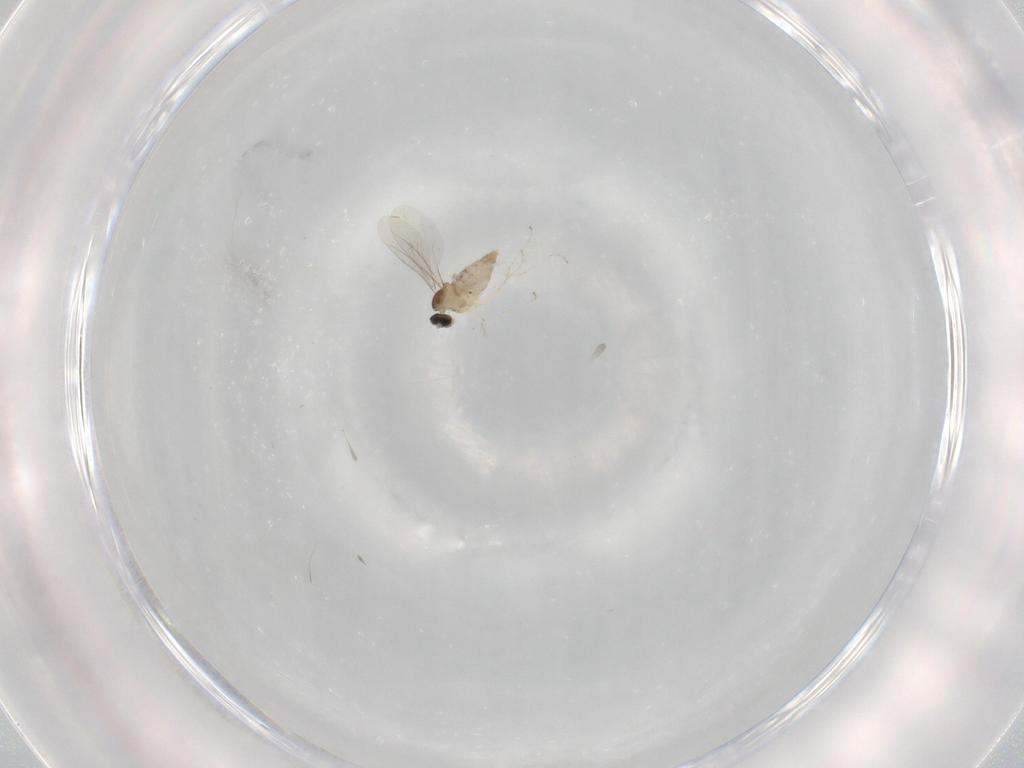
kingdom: Animalia
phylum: Arthropoda
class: Insecta
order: Diptera
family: Cecidomyiidae
